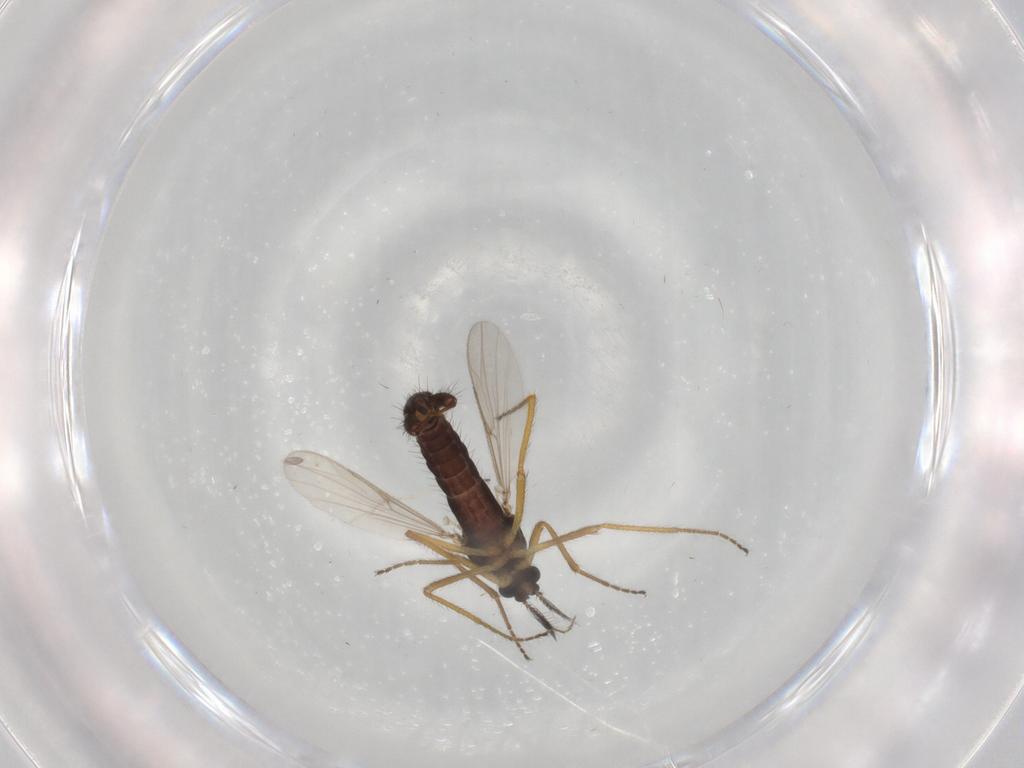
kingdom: Animalia
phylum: Arthropoda
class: Insecta
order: Diptera
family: Ceratopogonidae
